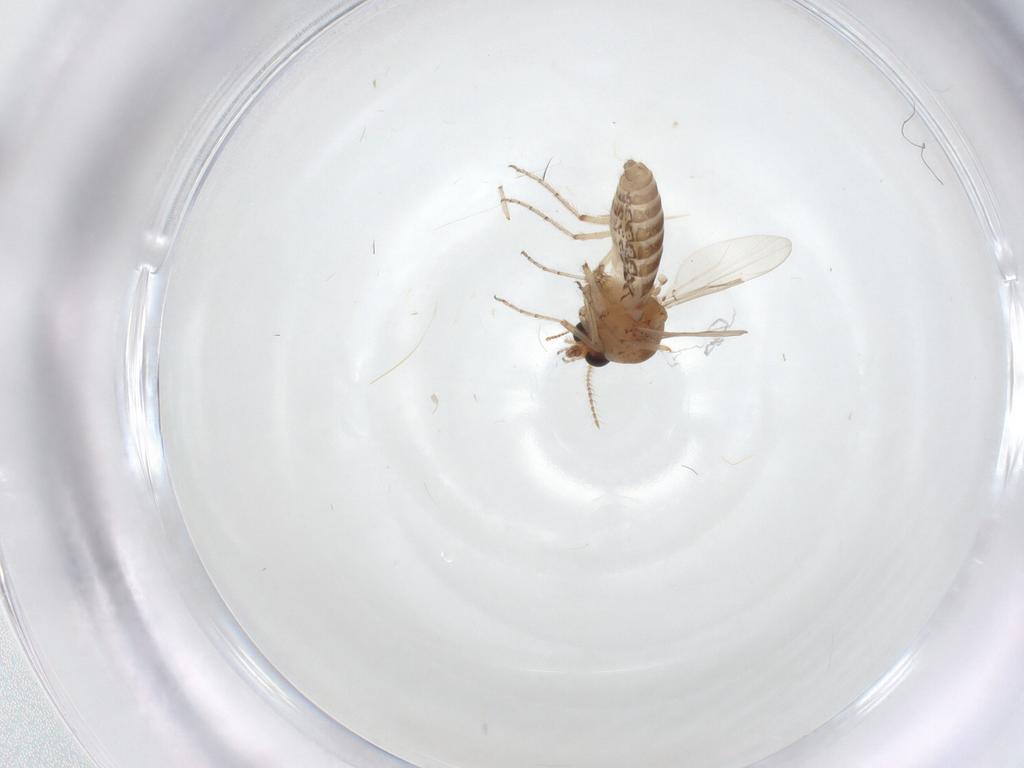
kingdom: Animalia
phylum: Arthropoda
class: Insecta
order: Diptera
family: Ceratopogonidae
